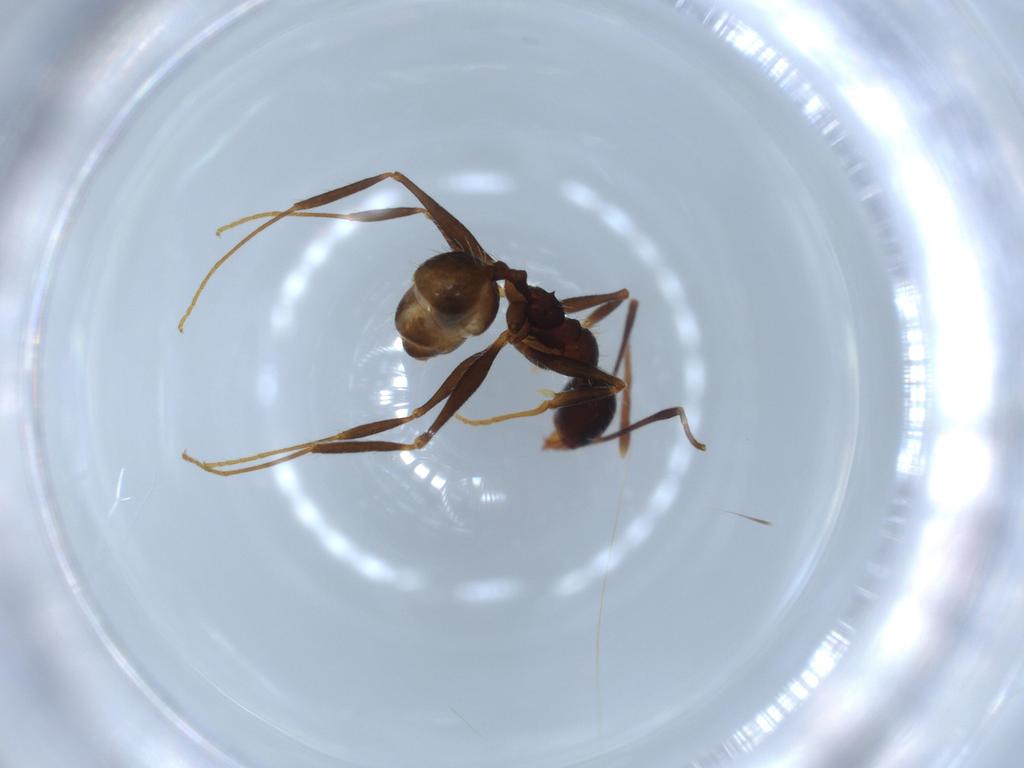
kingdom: Animalia
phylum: Arthropoda
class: Insecta
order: Hymenoptera
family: Formicidae
